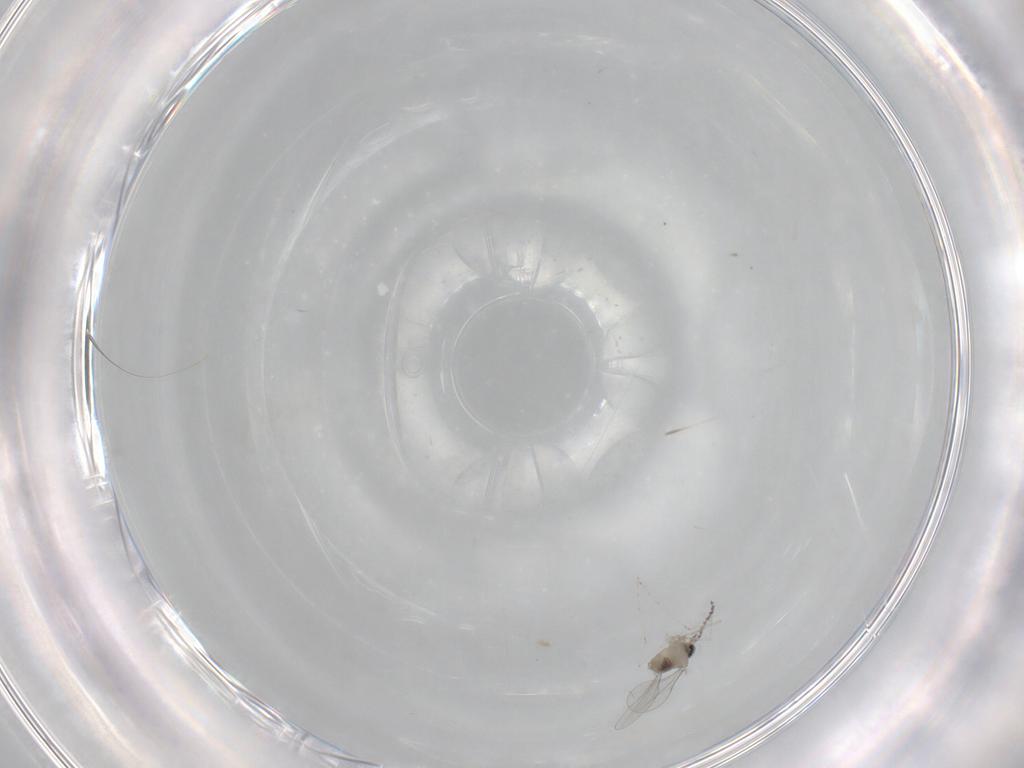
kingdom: Animalia
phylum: Arthropoda
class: Insecta
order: Diptera
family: Cecidomyiidae
